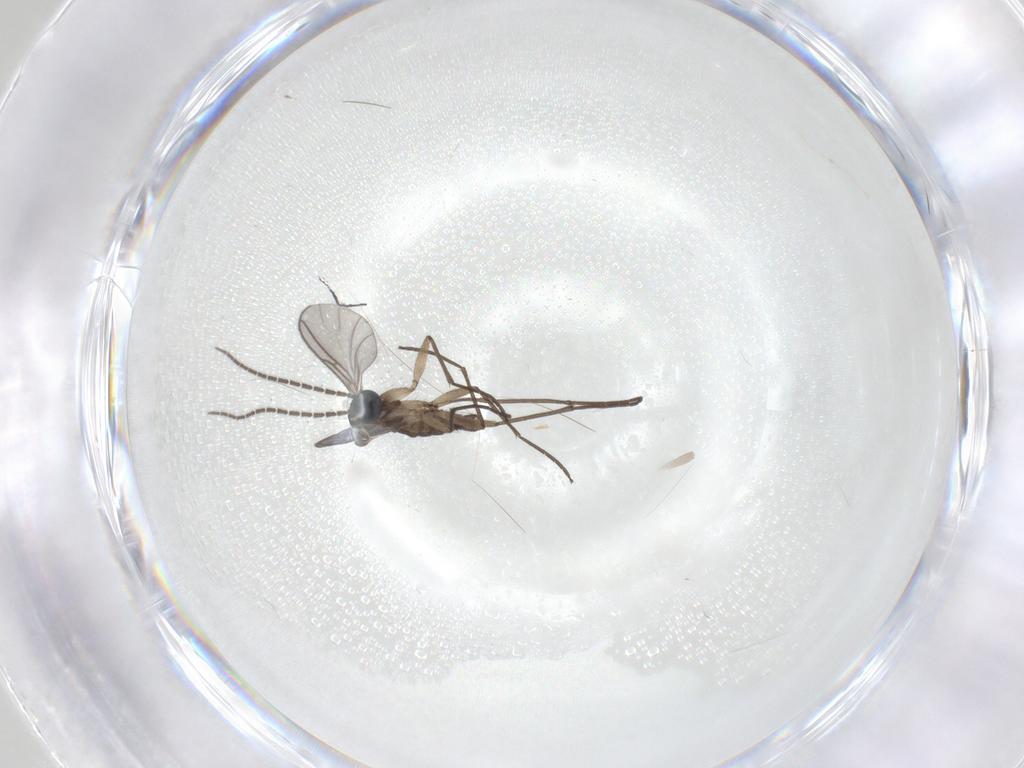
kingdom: Animalia
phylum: Arthropoda
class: Insecta
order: Diptera
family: Sciaridae
